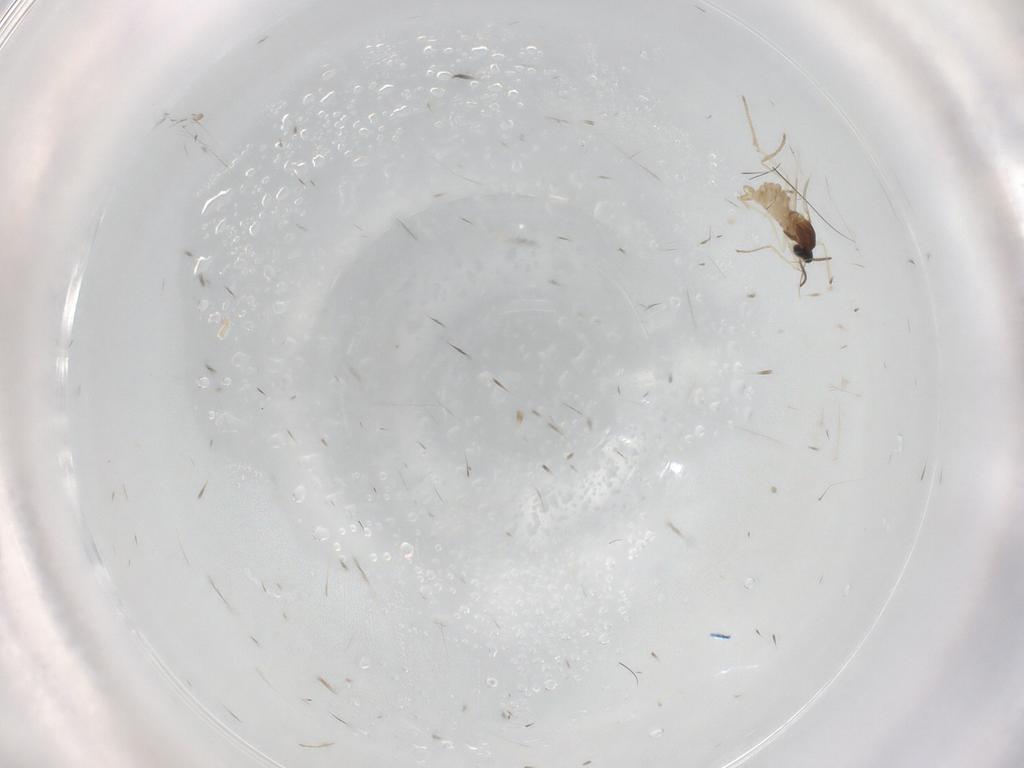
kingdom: Animalia
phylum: Arthropoda
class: Insecta
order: Diptera
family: Cecidomyiidae
